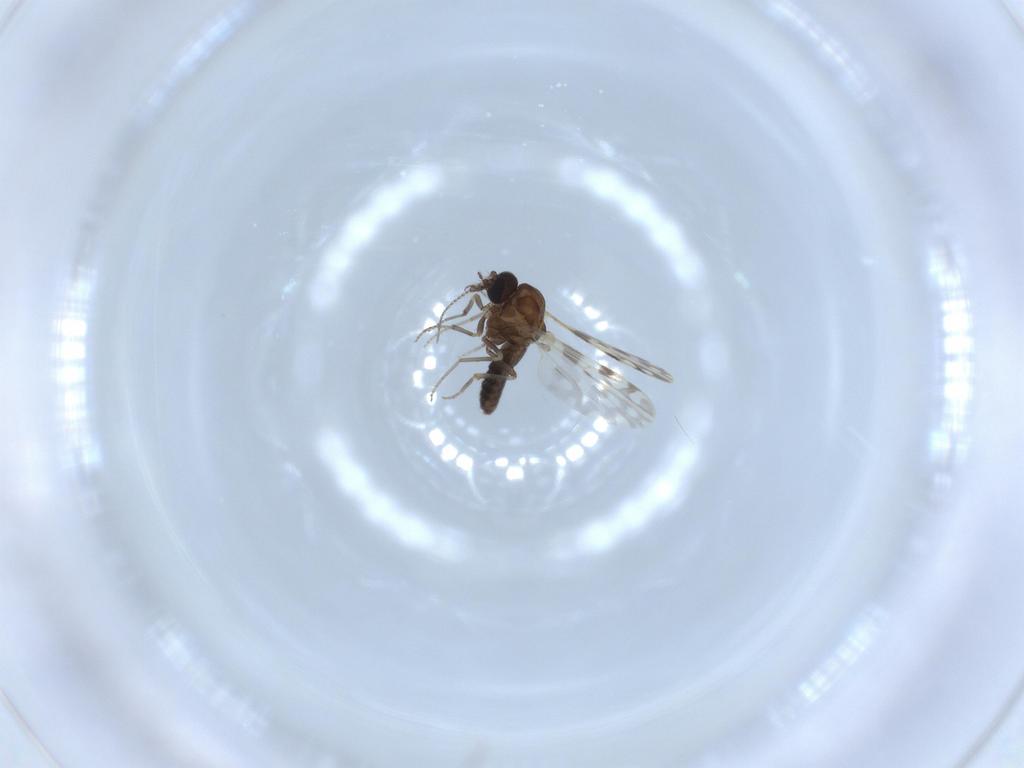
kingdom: Animalia
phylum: Arthropoda
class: Insecta
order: Diptera
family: Ceratopogonidae
